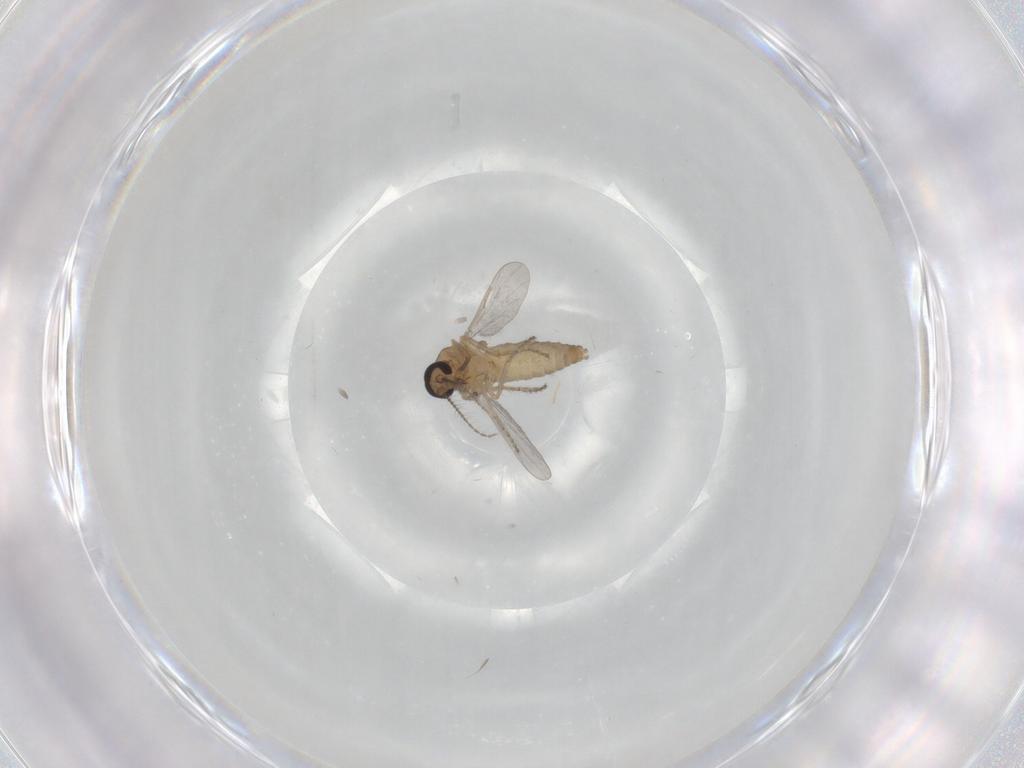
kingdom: Animalia
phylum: Arthropoda
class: Insecta
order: Diptera
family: Ceratopogonidae
